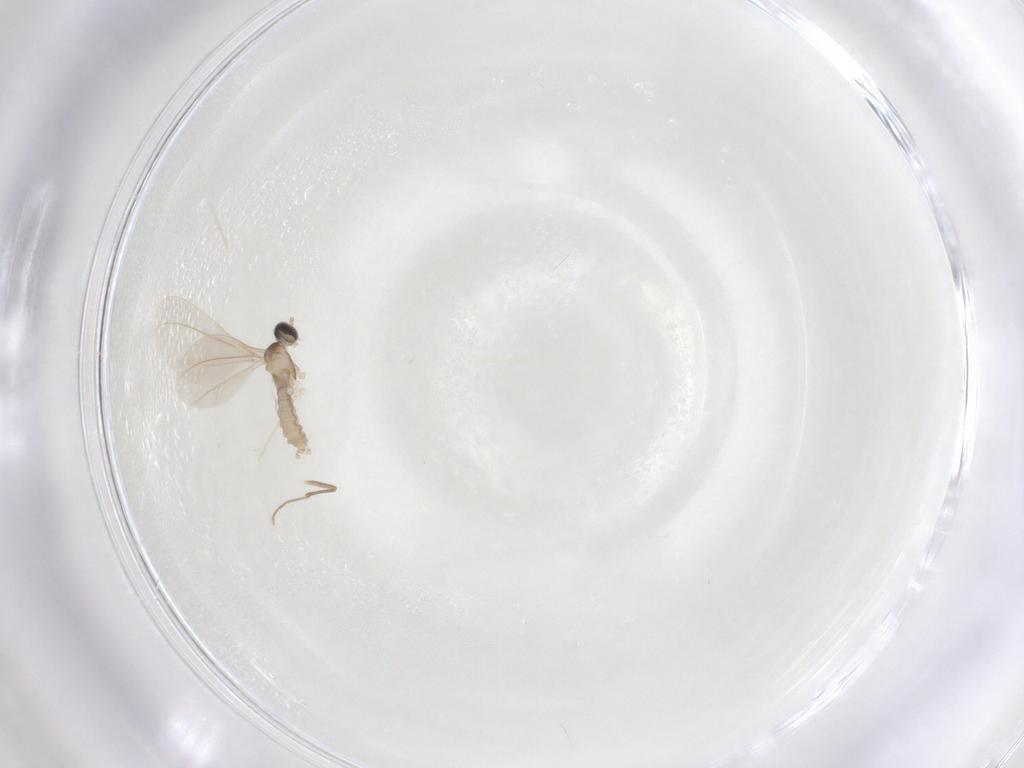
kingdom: Animalia
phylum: Arthropoda
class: Insecta
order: Diptera
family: Cecidomyiidae
